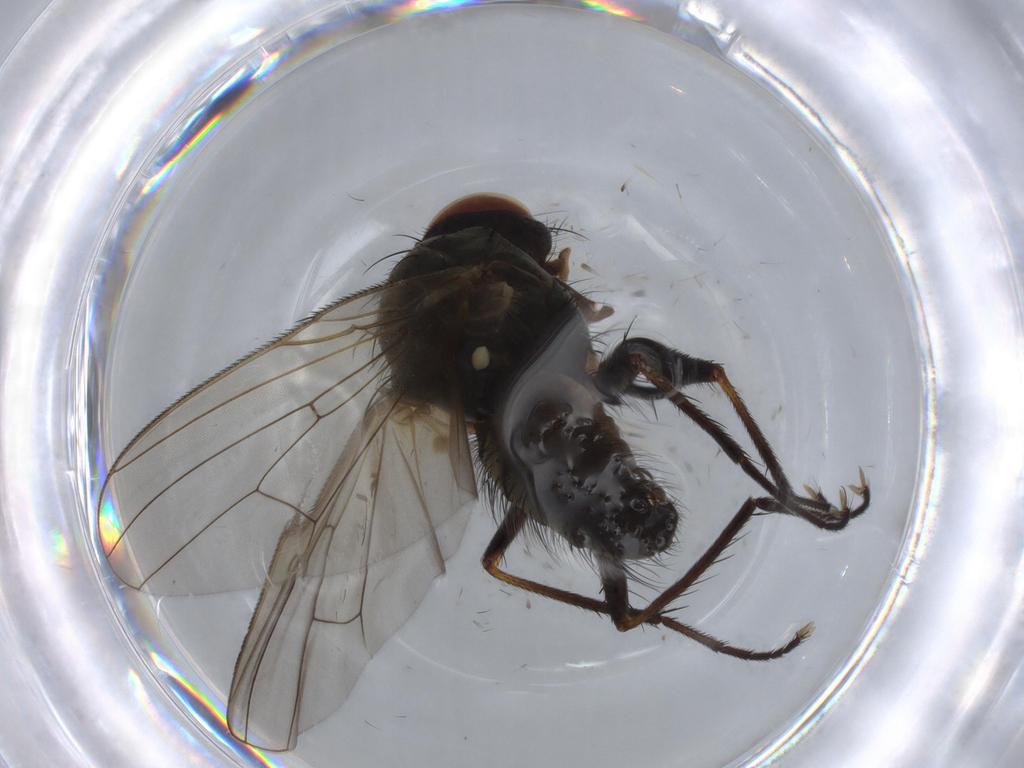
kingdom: Animalia
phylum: Arthropoda
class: Insecta
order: Diptera
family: Anthomyiidae
